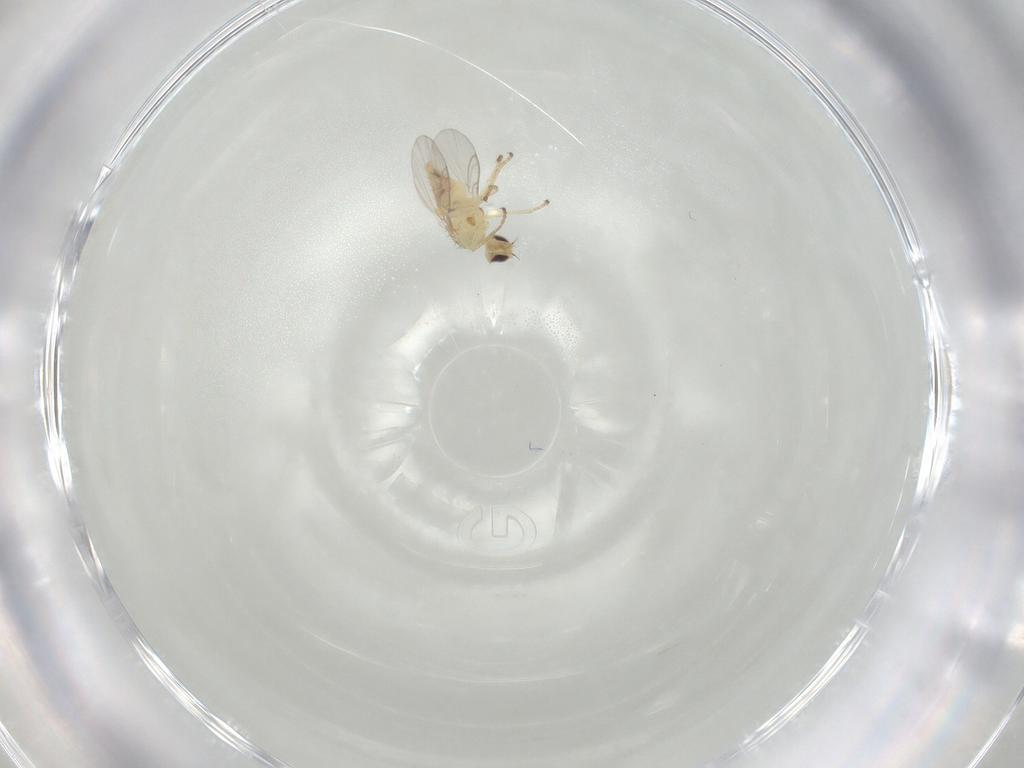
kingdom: Animalia
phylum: Arthropoda
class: Insecta
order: Diptera
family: Agromyzidae
